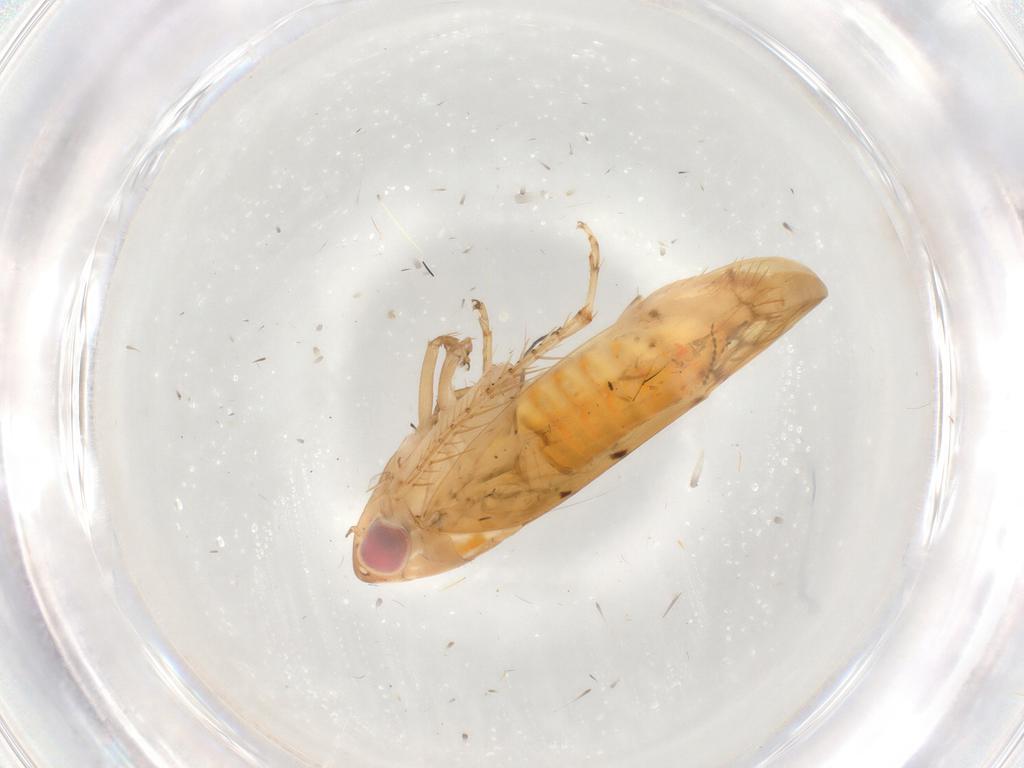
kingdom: Animalia
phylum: Arthropoda
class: Insecta
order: Hemiptera
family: Cicadellidae
